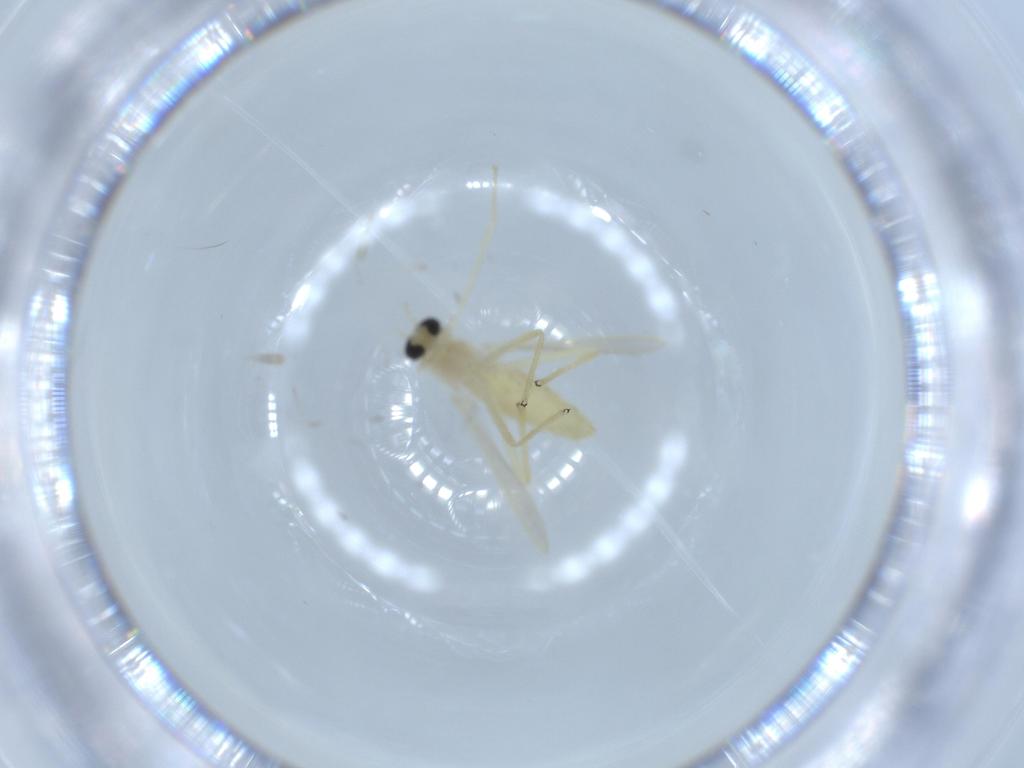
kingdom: Animalia
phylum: Arthropoda
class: Insecta
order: Diptera
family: Chironomidae
